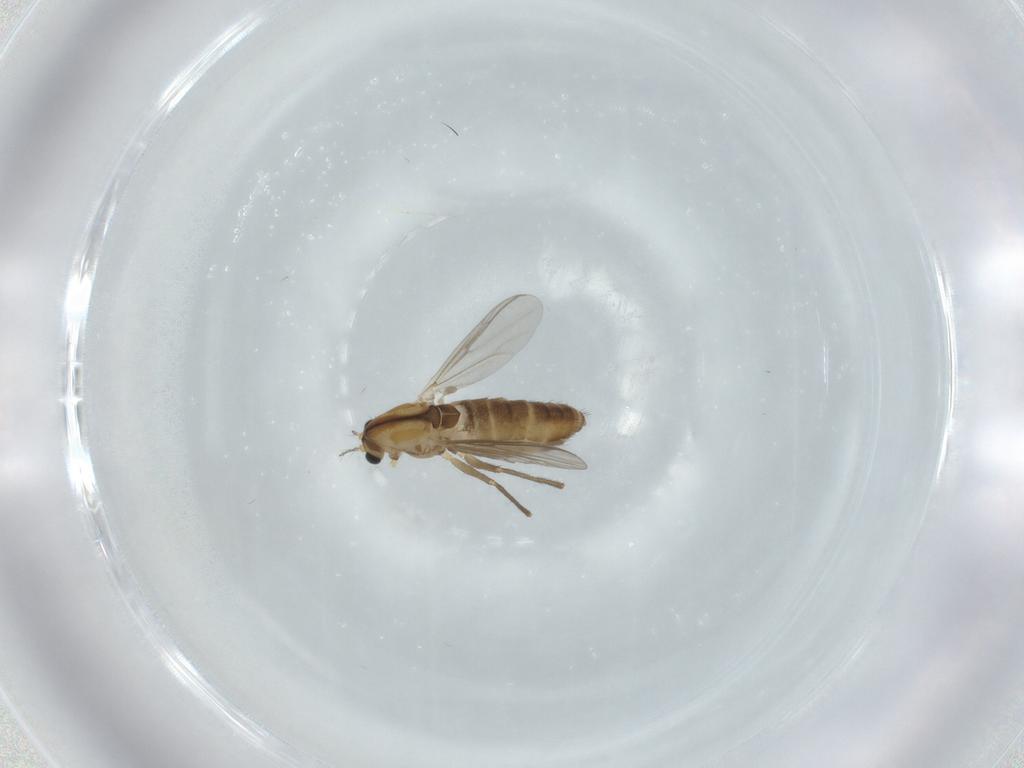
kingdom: Animalia
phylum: Arthropoda
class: Insecta
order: Diptera
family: Chironomidae
